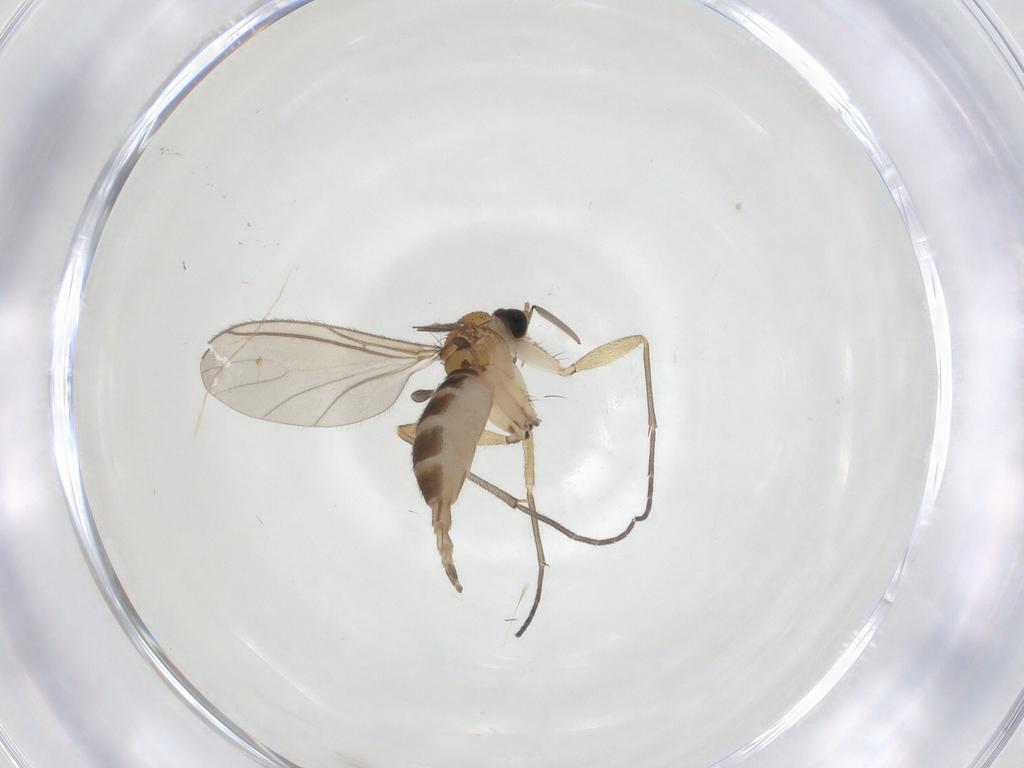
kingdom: Animalia
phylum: Arthropoda
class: Insecta
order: Diptera
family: Sciaridae
